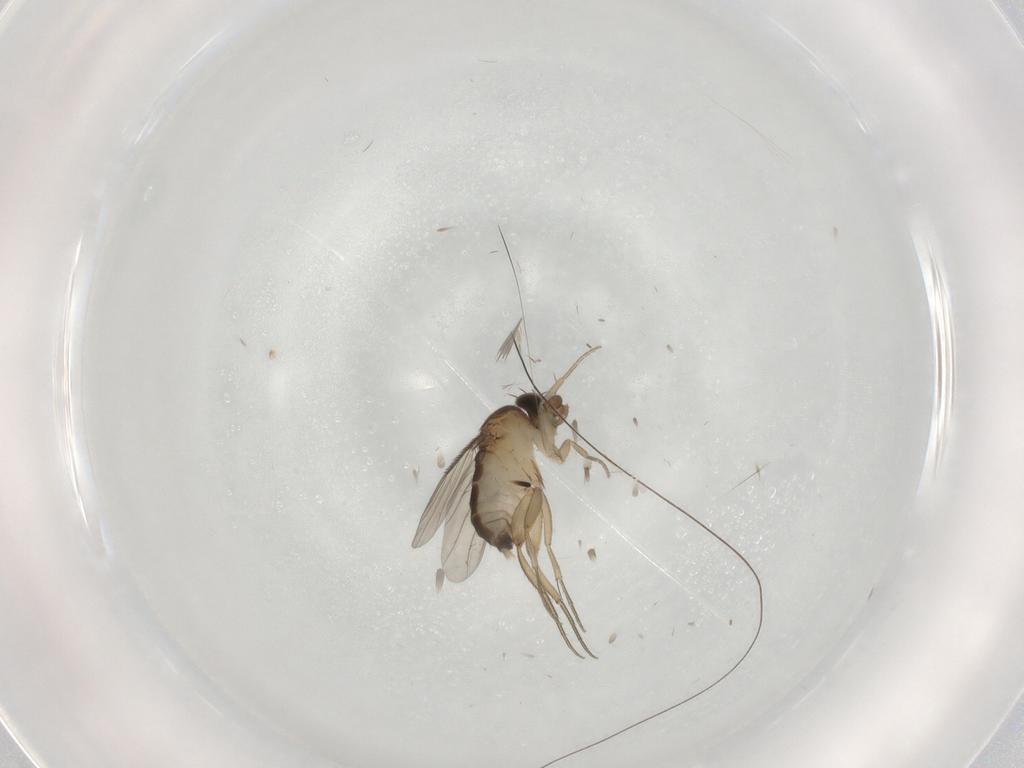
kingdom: Animalia
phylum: Arthropoda
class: Insecta
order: Diptera
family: Phoridae
